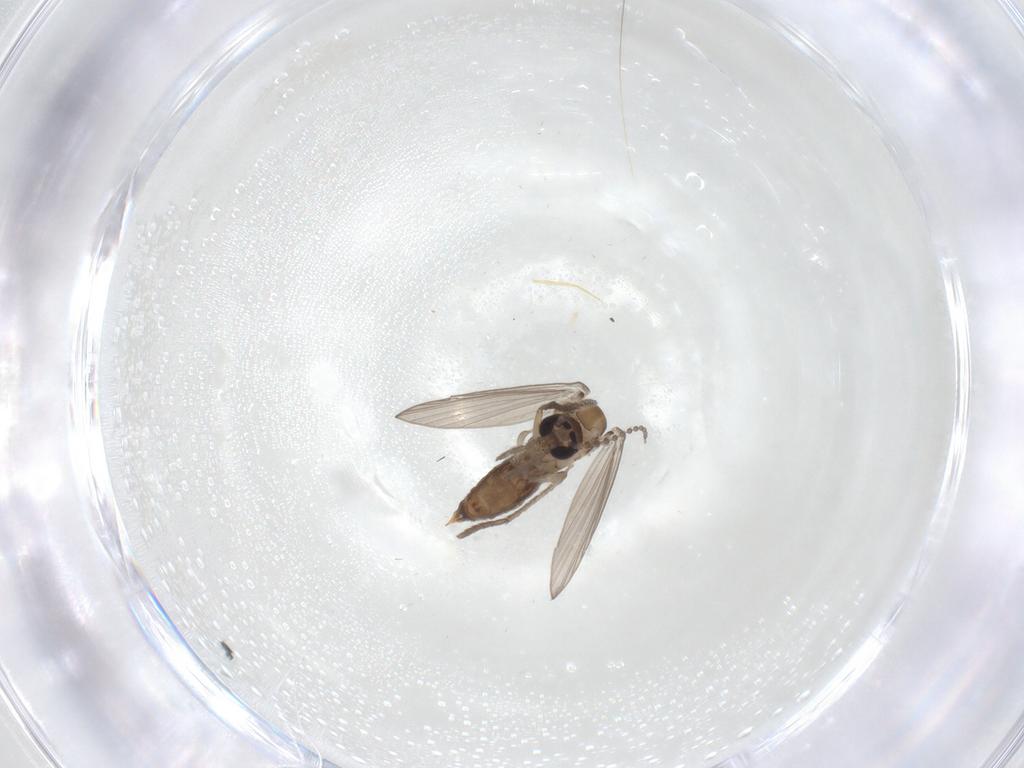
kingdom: Animalia
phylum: Arthropoda
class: Insecta
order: Diptera
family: Psychodidae
